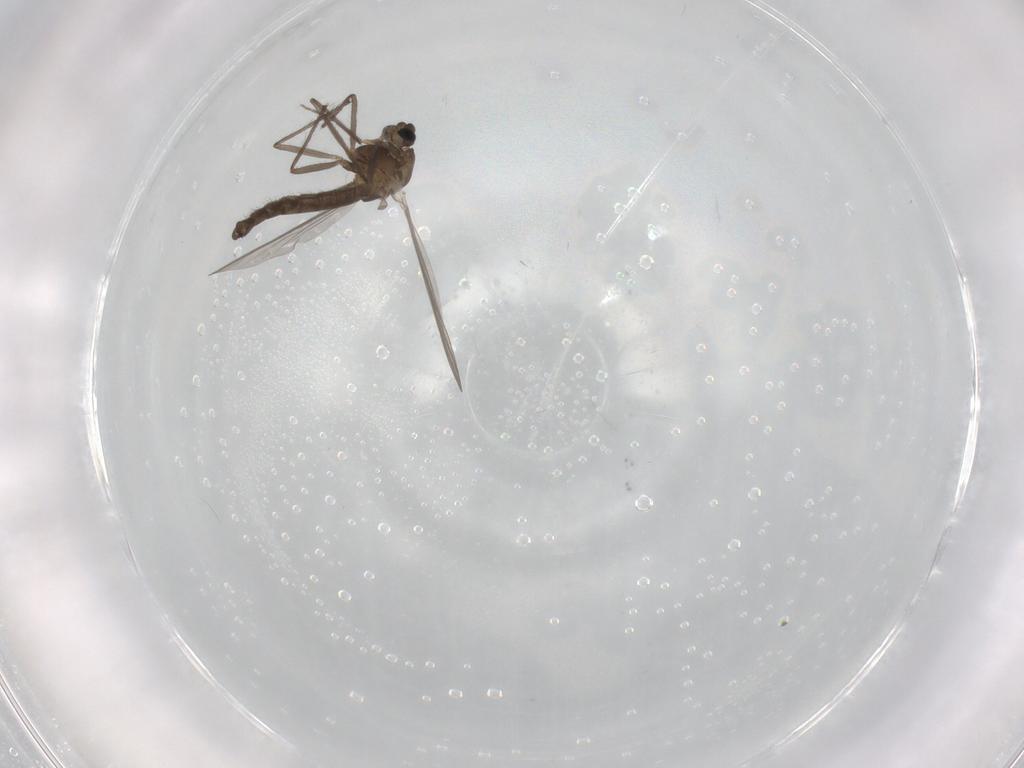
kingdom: Animalia
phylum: Arthropoda
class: Insecta
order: Diptera
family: Chironomidae
